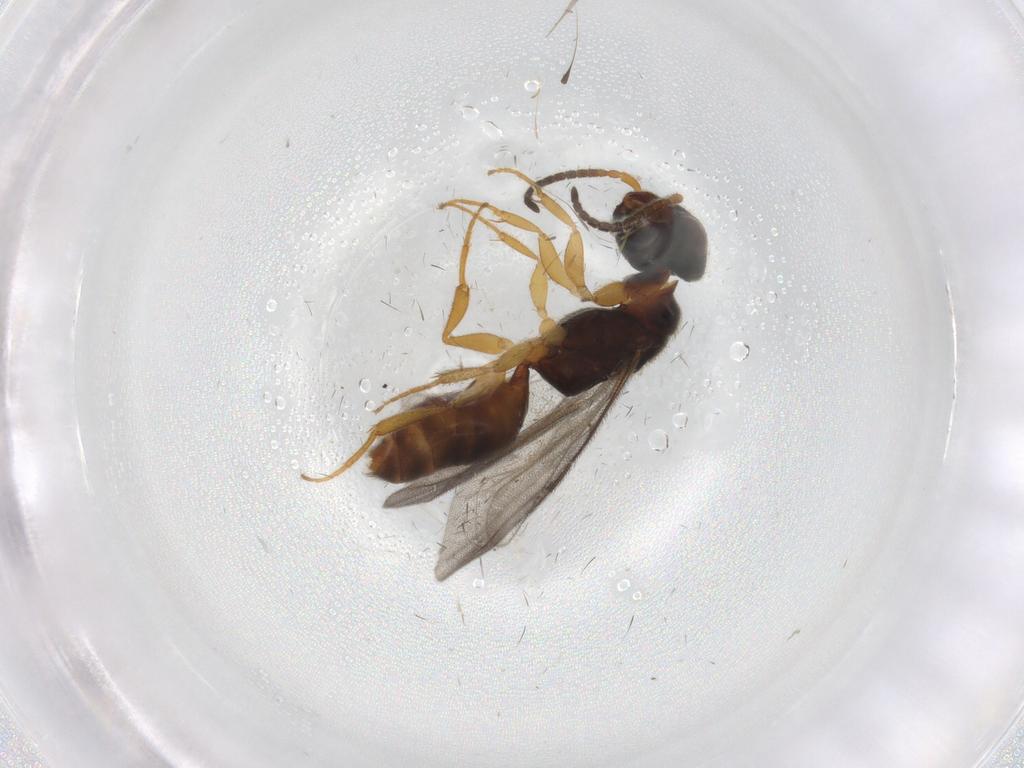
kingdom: Animalia
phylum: Arthropoda
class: Insecta
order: Hymenoptera
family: Bethylidae
